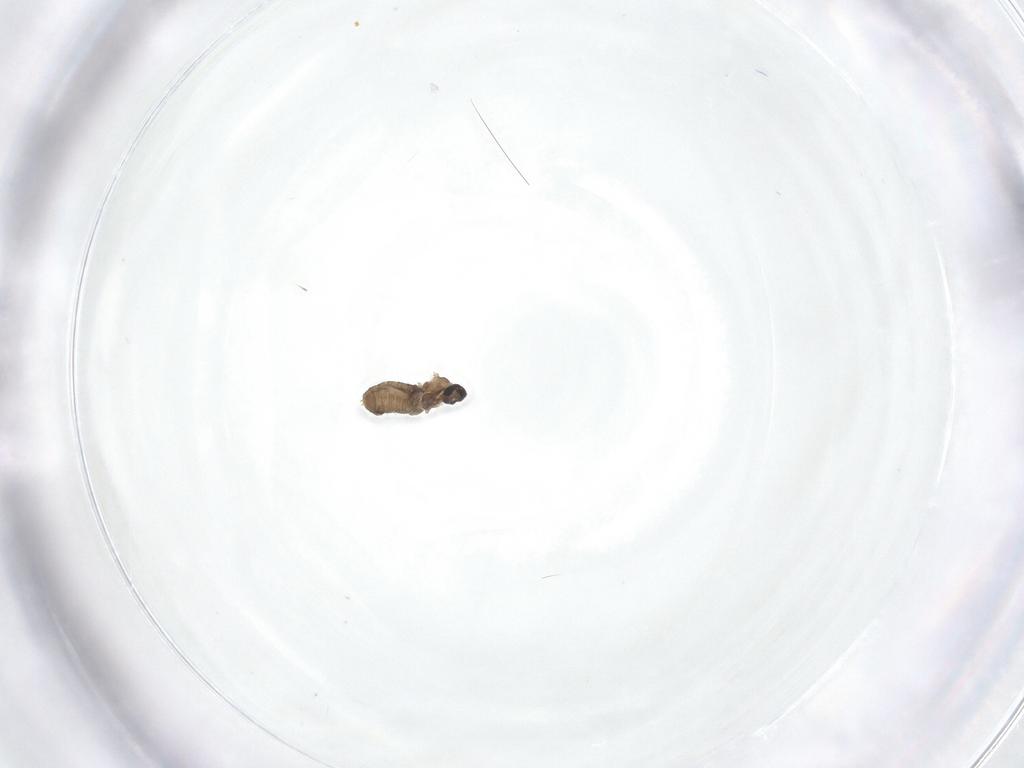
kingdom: Animalia
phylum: Arthropoda
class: Insecta
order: Diptera
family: Cecidomyiidae
